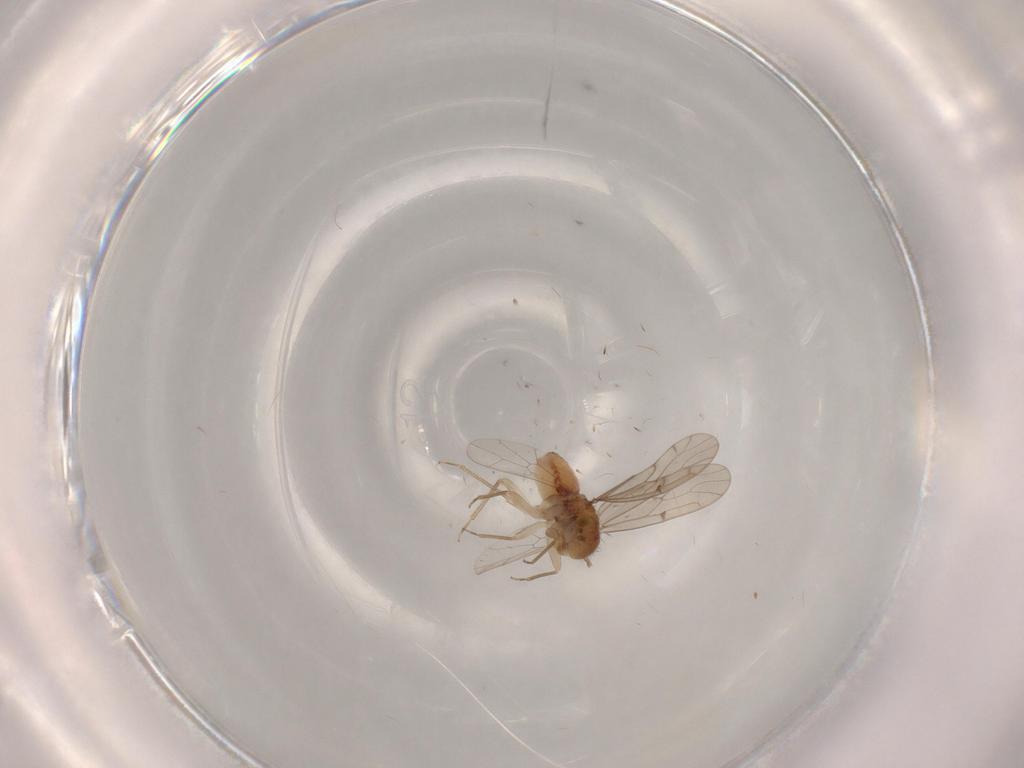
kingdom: Animalia
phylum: Arthropoda
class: Insecta
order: Psocodea
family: Ectopsocidae
